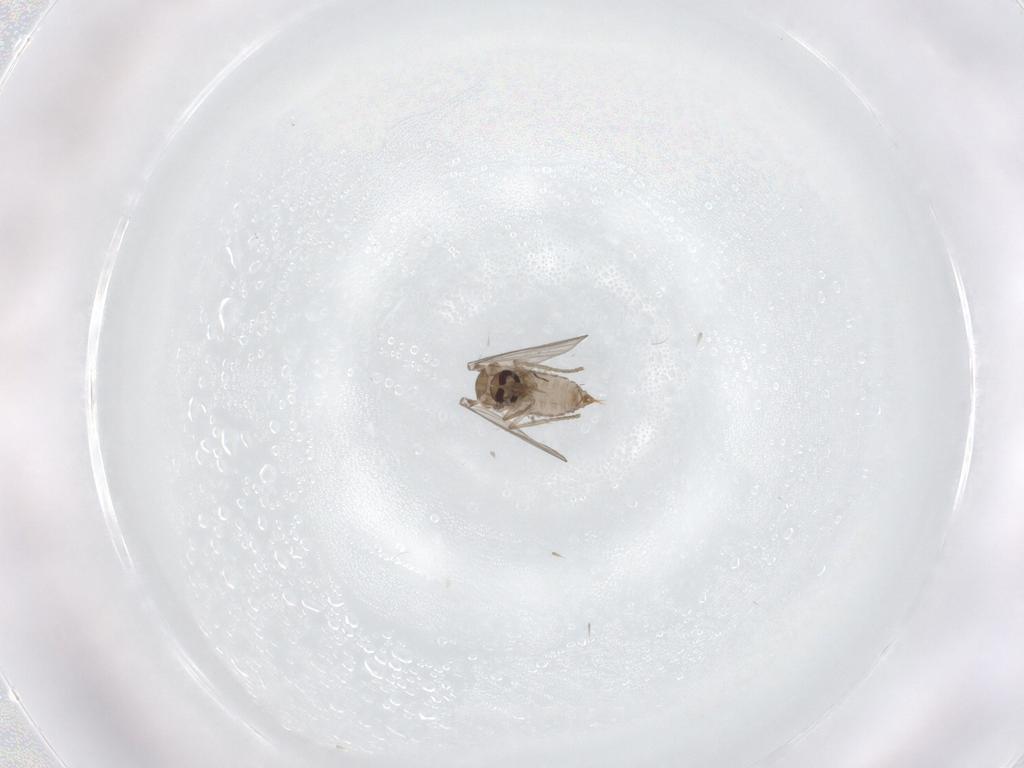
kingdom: Animalia
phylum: Arthropoda
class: Insecta
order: Diptera
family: Psychodidae
